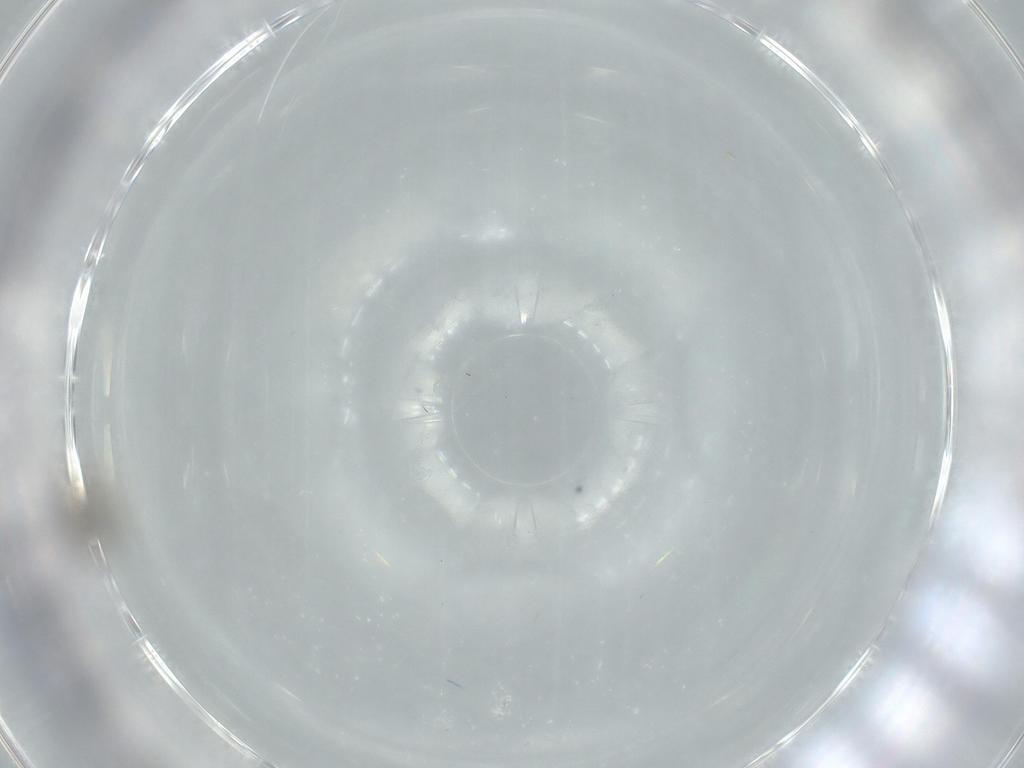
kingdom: Animalia
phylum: Arthropoda
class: Insecta
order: Diptera
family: Cecidomyiidae
